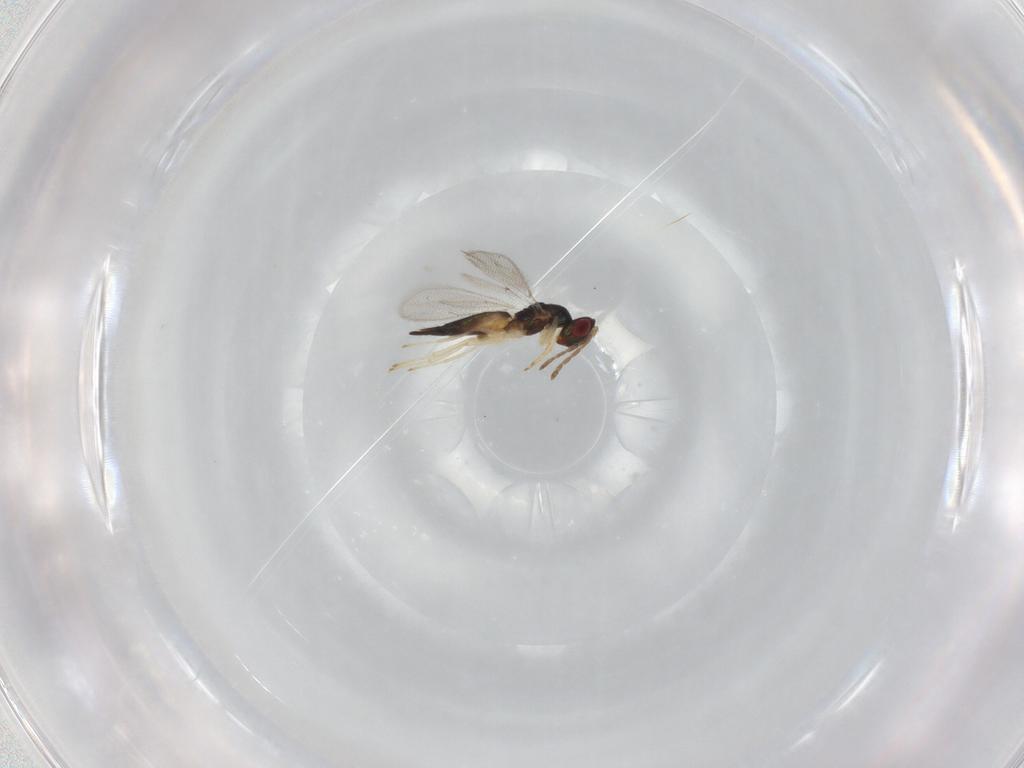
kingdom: Animalia
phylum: Arthropoda
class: Insecta
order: Hymenoptera
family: Eulophidae
